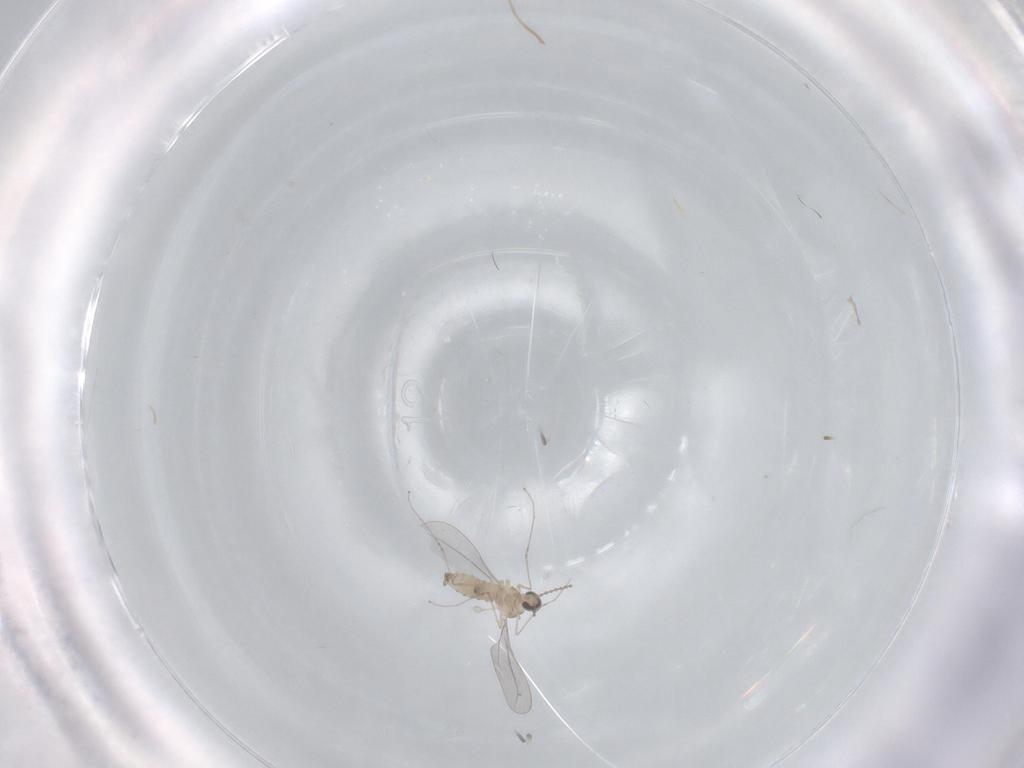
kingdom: Animalia
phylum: Arthropoda
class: Insecta
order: Diptera
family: Cecidomyiidae
